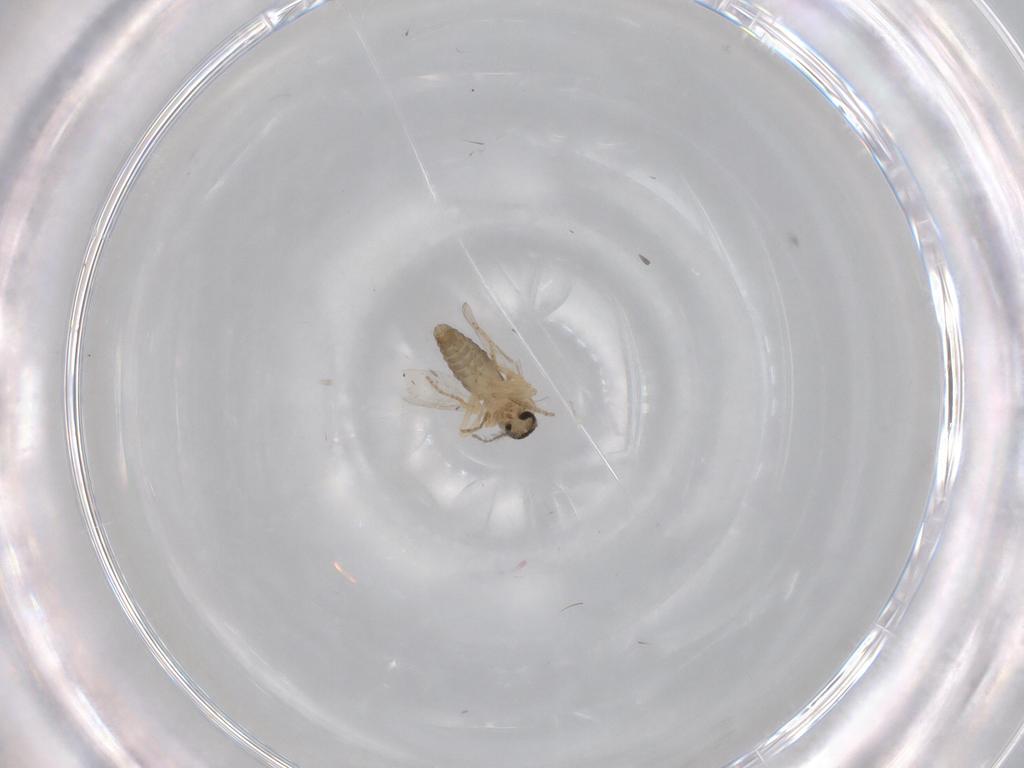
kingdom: Animalia
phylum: Arthropoda
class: Insecta
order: Diptera
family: Ceratopogonidae
